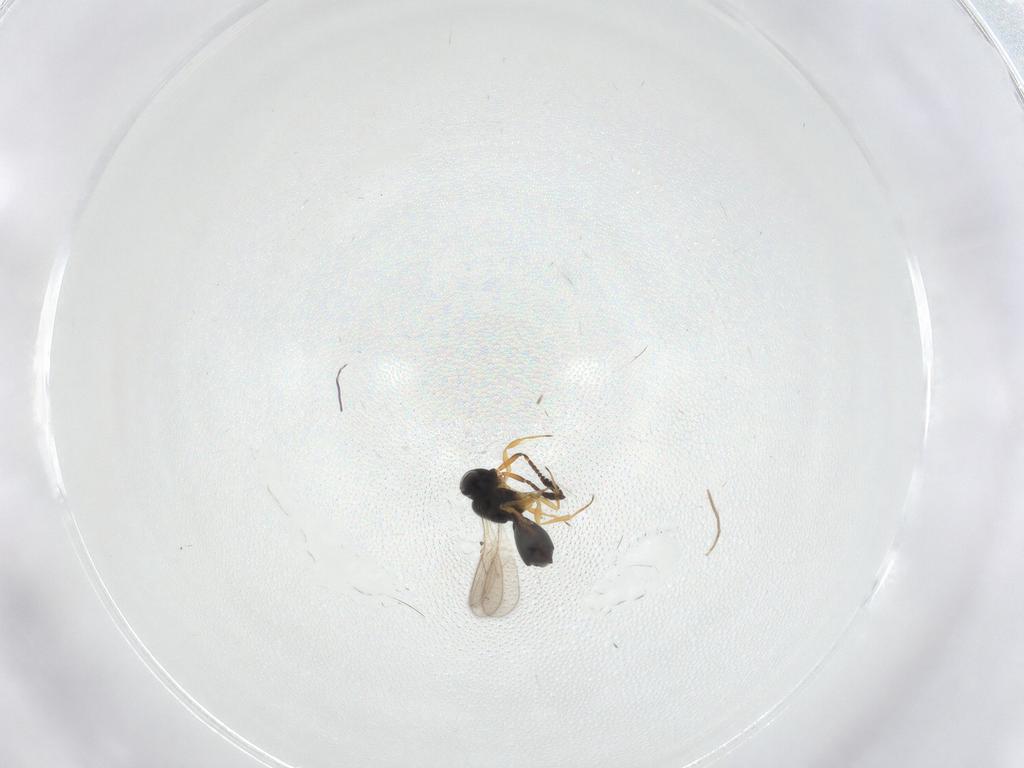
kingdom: Animalia
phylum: Arthropoda
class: Insecta
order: Hymenoptera
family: Scelionidae
